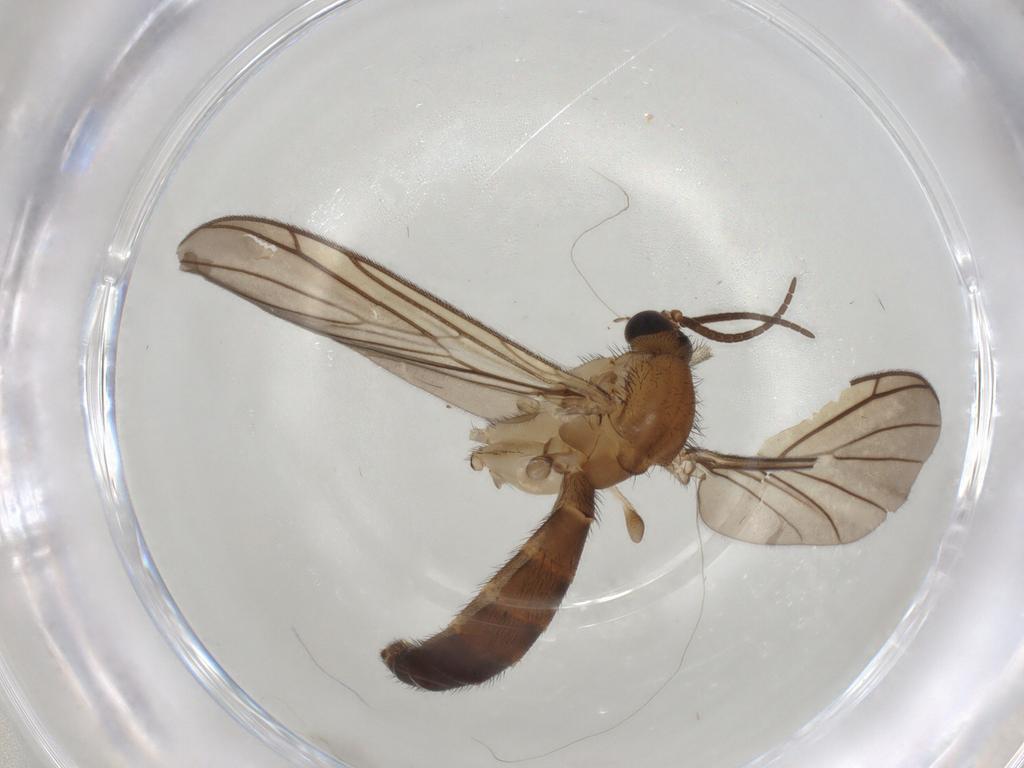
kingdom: Animalia
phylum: Arthropoda
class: Insecta
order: Diptera
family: Keroplatidae
